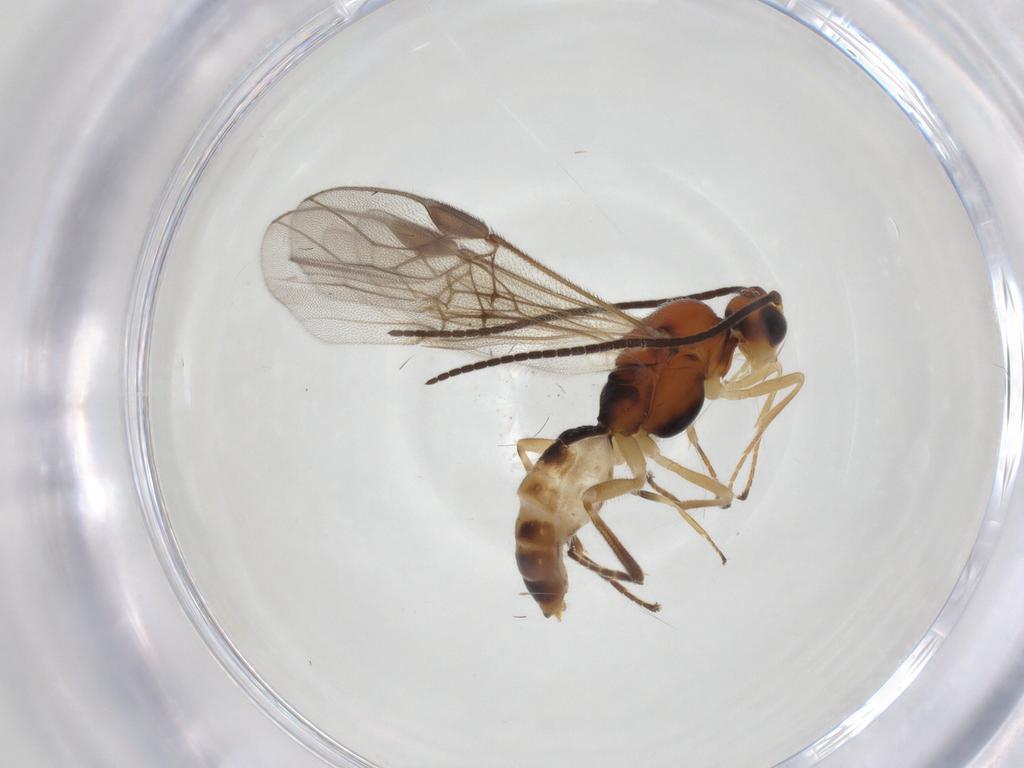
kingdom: Animalia
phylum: Arthropoda
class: Insecta
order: Hymenoptera
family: Braconidae
